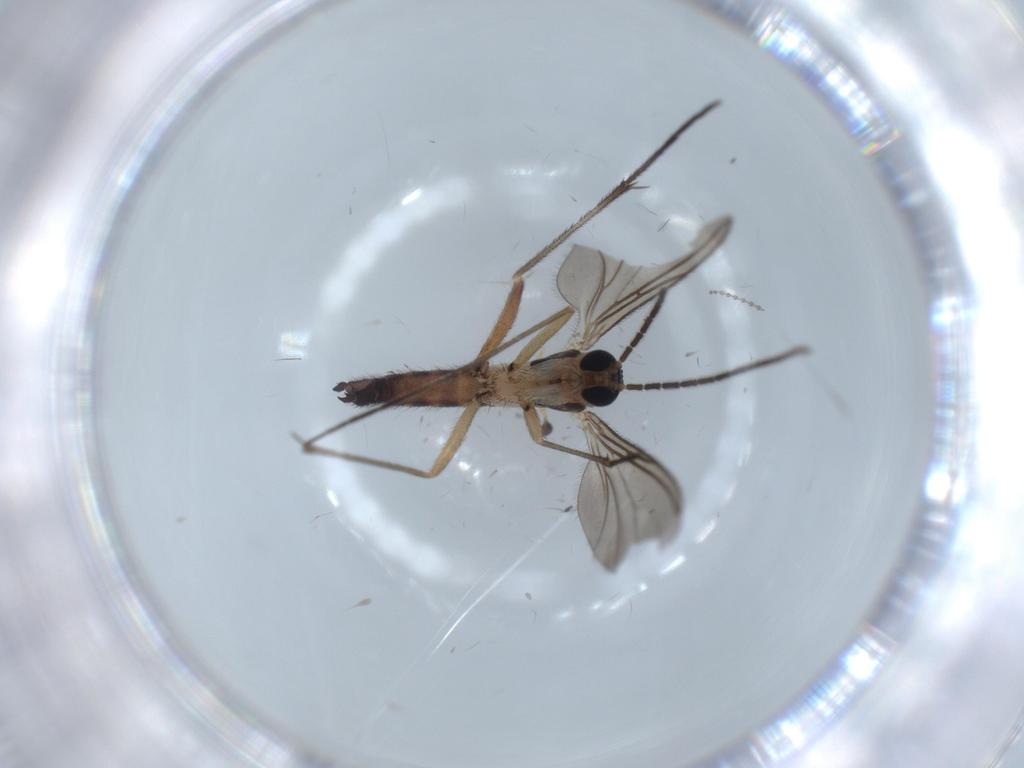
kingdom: Animalia
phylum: Arthropoda
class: Insecta
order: Diptera
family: Sciaridae
